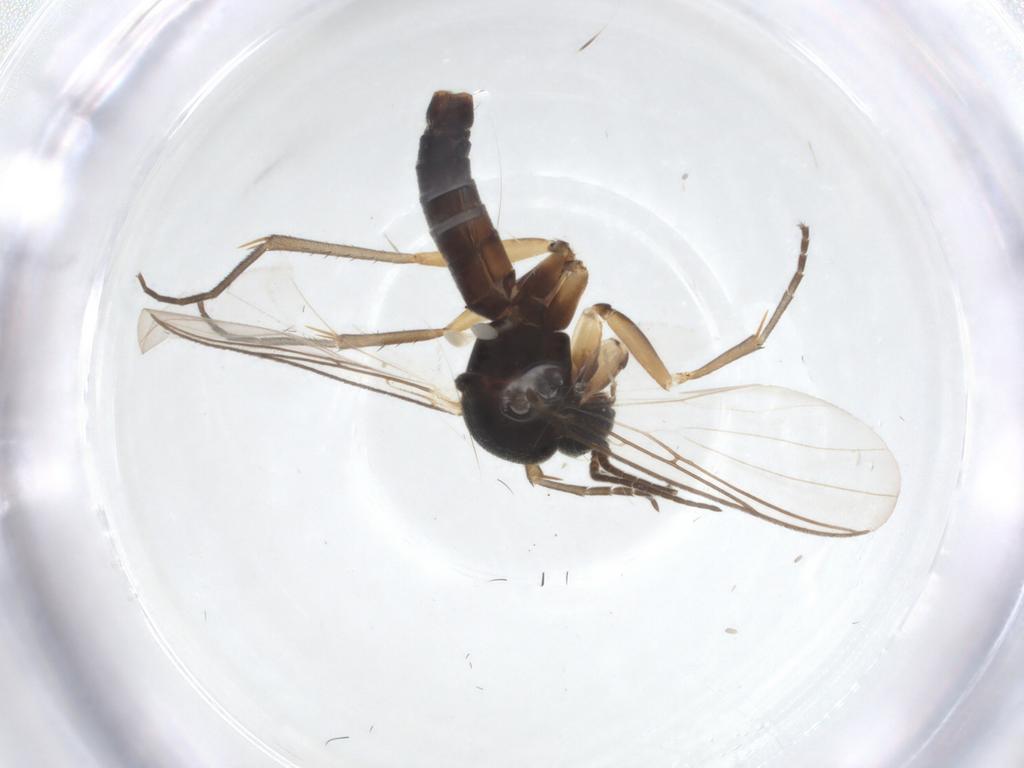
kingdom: Animalia
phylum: Arthropoda
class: Insecta
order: Diptera
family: Mycetophilidae
